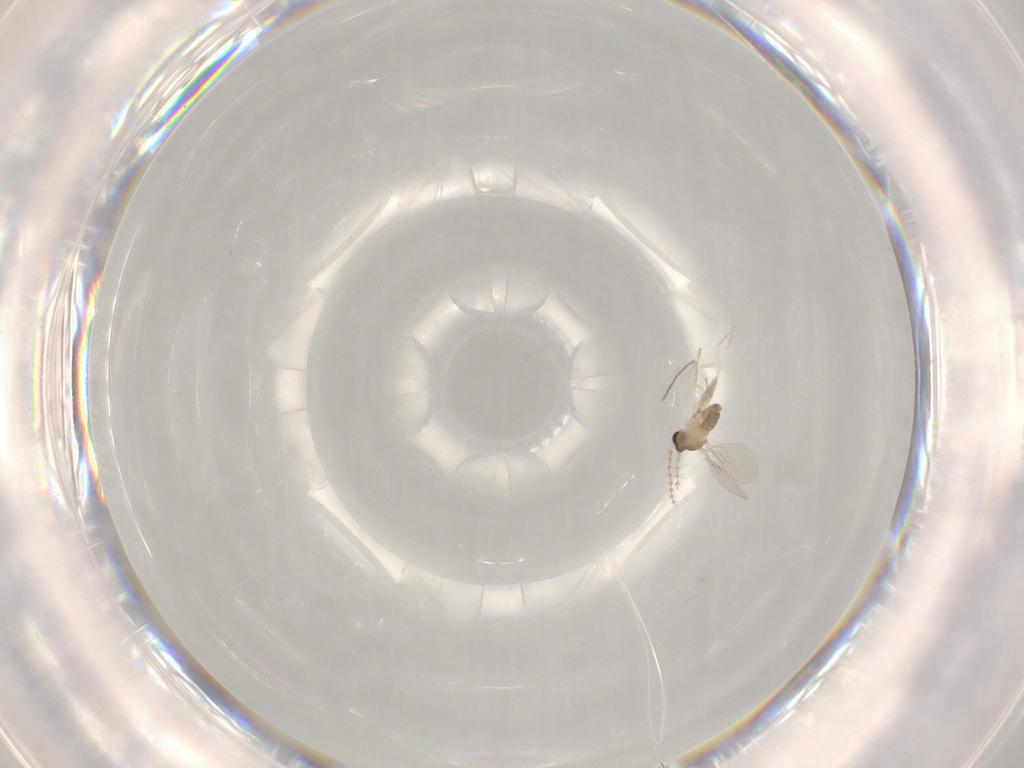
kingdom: Animalia
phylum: Arthropoda
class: Insecta
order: Diptera
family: Cecidomyiidae
